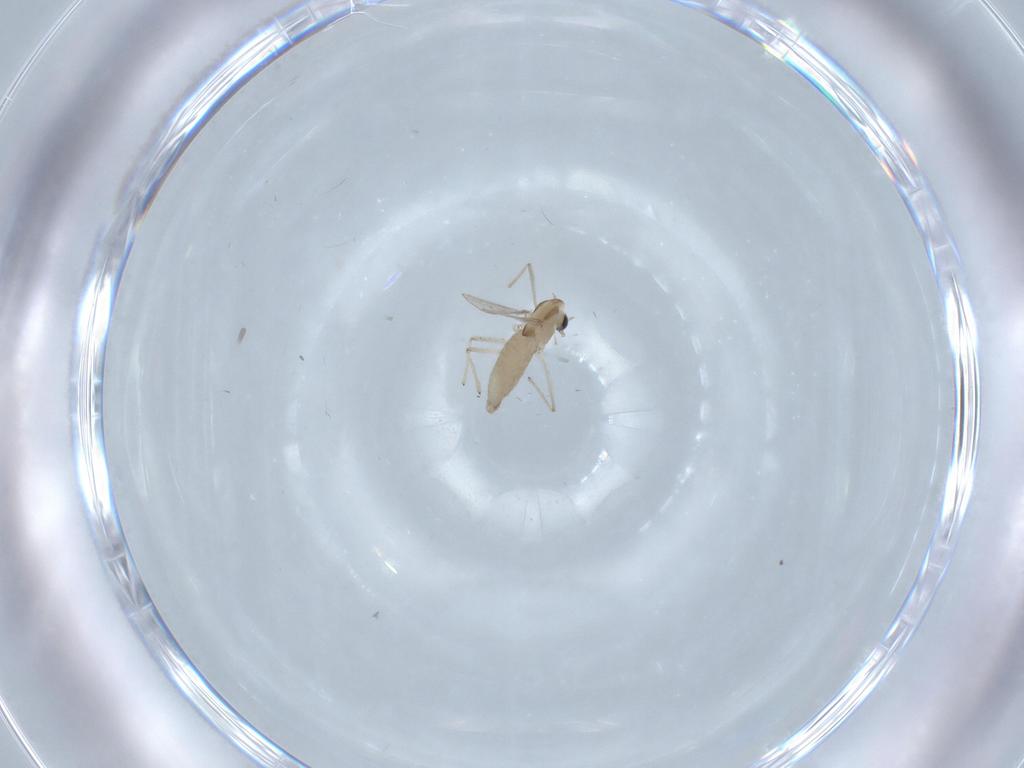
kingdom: Animalia
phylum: Arthropoda
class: Insecta
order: Diptera
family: Chironomidae
